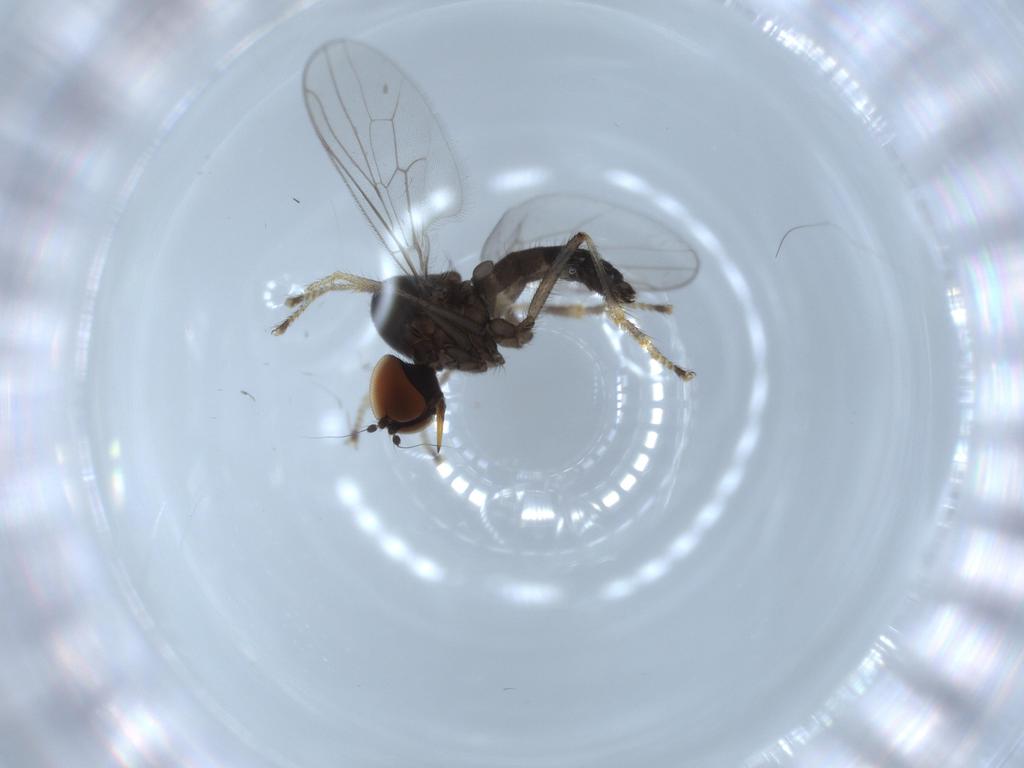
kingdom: Animalia
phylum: Arthropoda
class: Insecta
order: Diptera
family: Hybotidae
